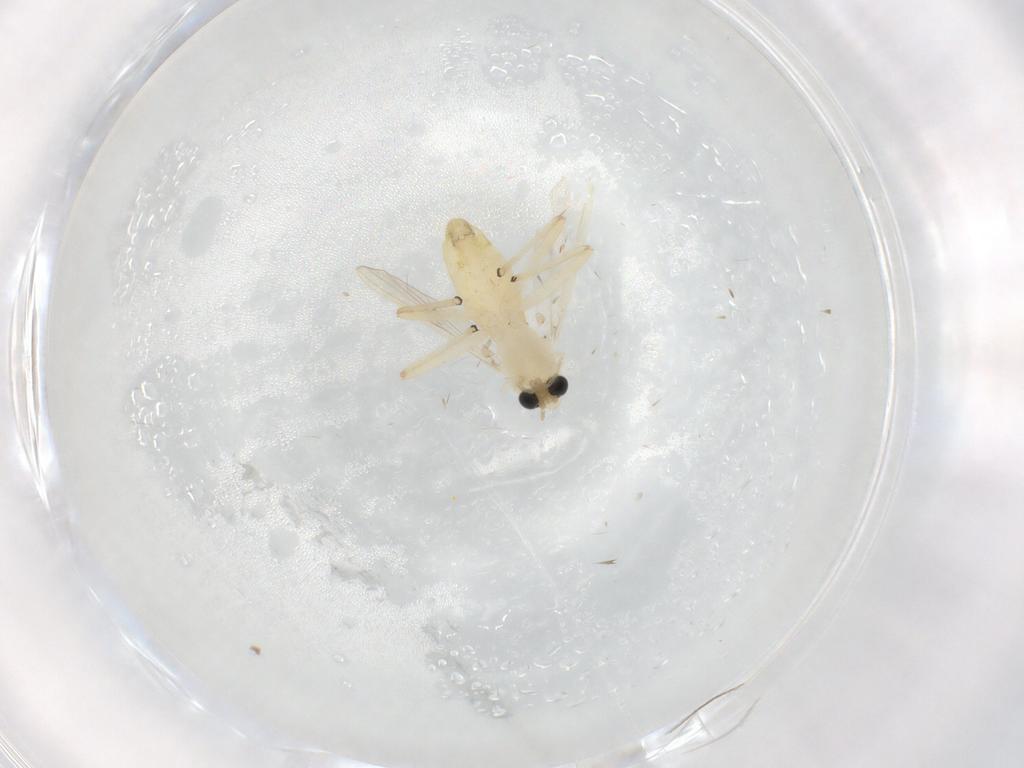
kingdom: Animalia
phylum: Arthropoda
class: Insecta
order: Diptera
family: Chironomidae
